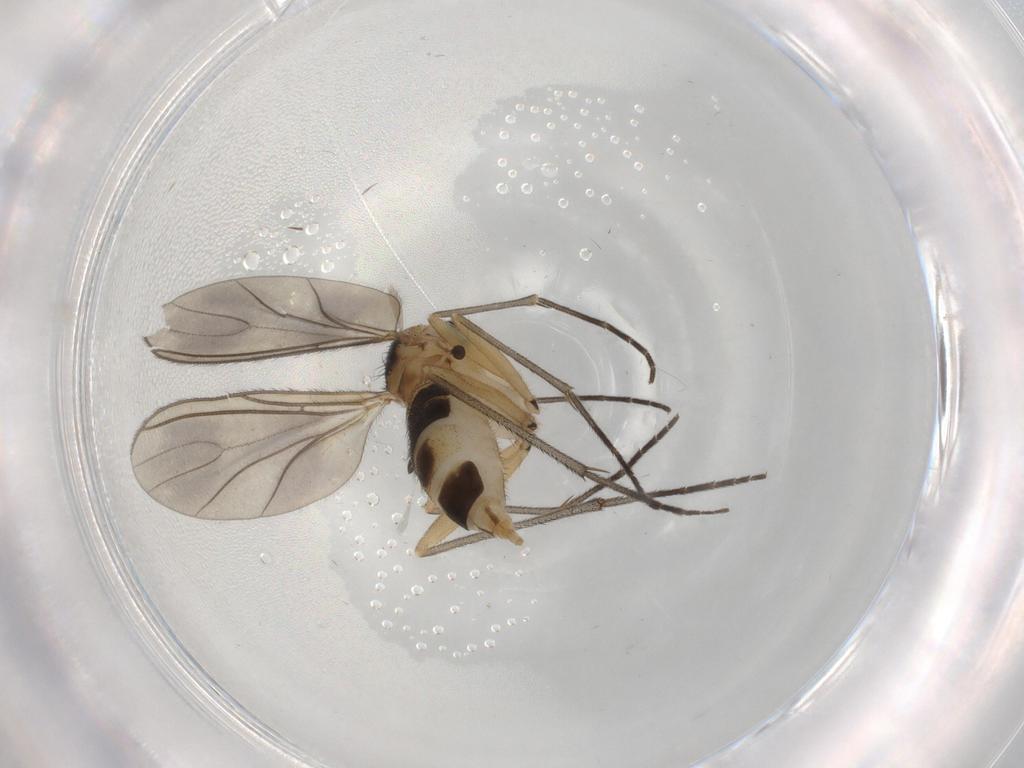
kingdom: Animalia
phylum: Arthropoda
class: Insecta
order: Diptera
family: Sciaridae
